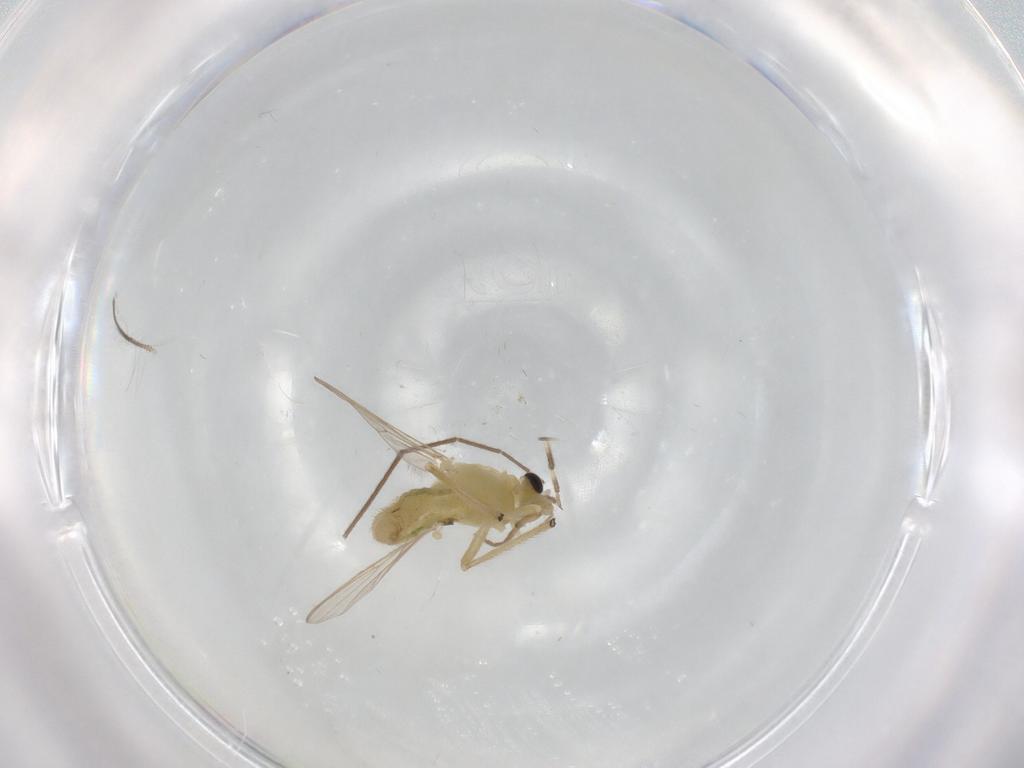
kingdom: Animalia
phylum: Arthropoda
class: Insecta
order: Diptera
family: Chironomidae
